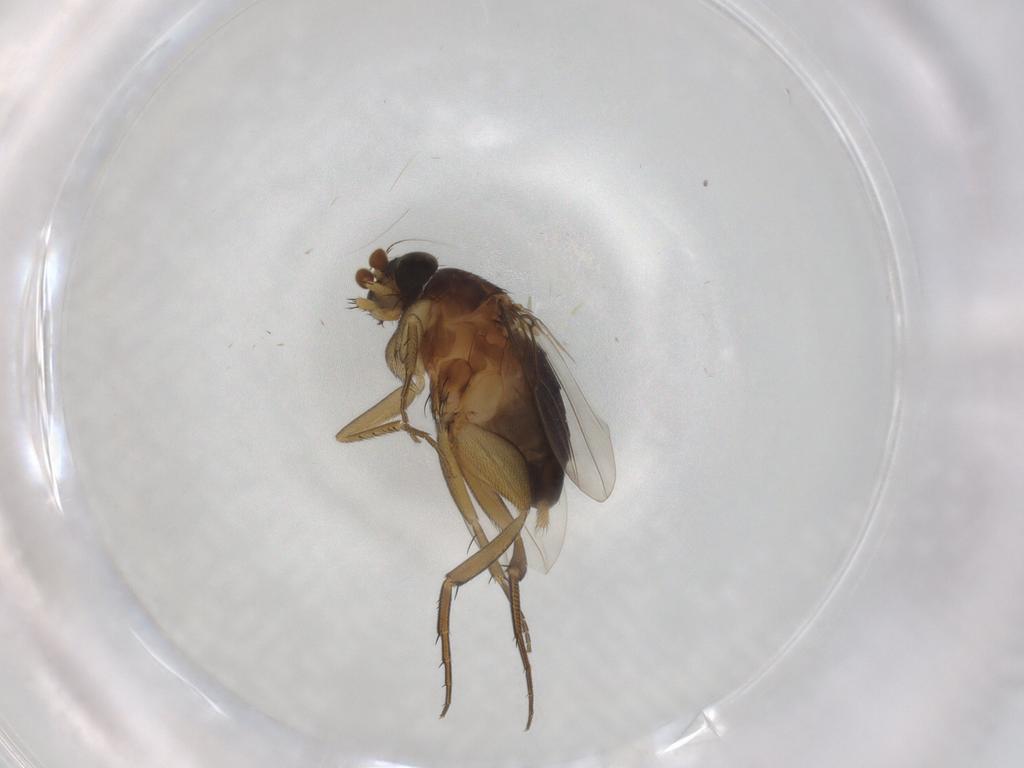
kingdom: Animalia
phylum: Arthropoda
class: Insecta
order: Diptera
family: Phoridae
